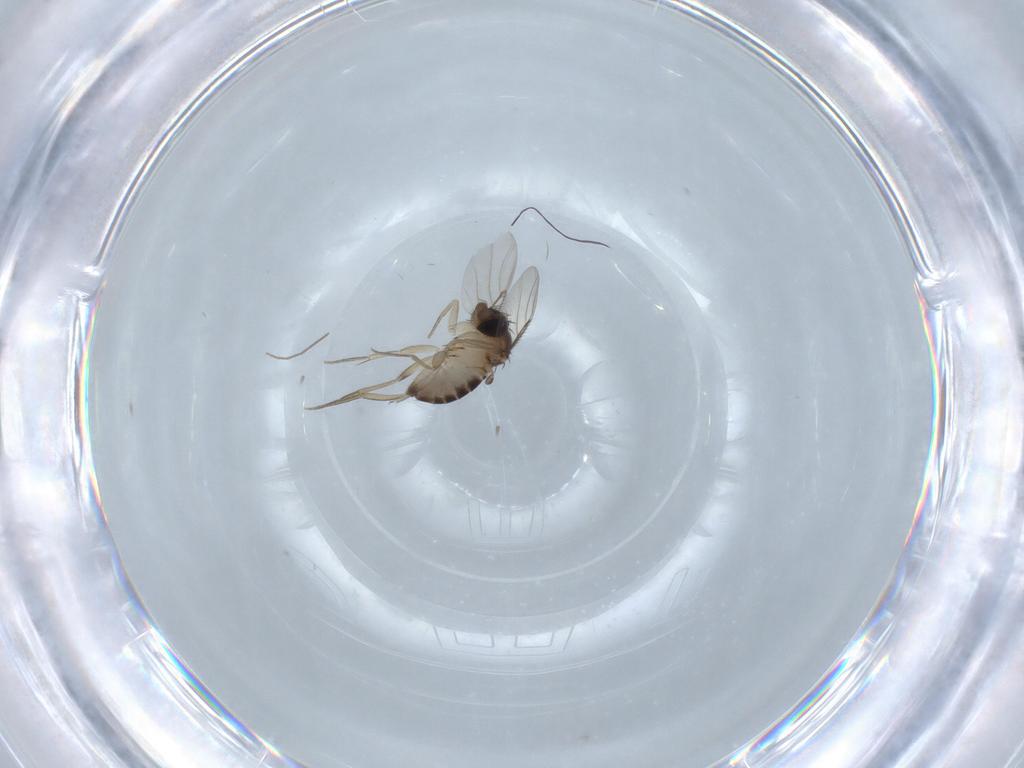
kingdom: Animalia
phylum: Arthropoda
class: Insecta
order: Diptera
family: Phoridae
